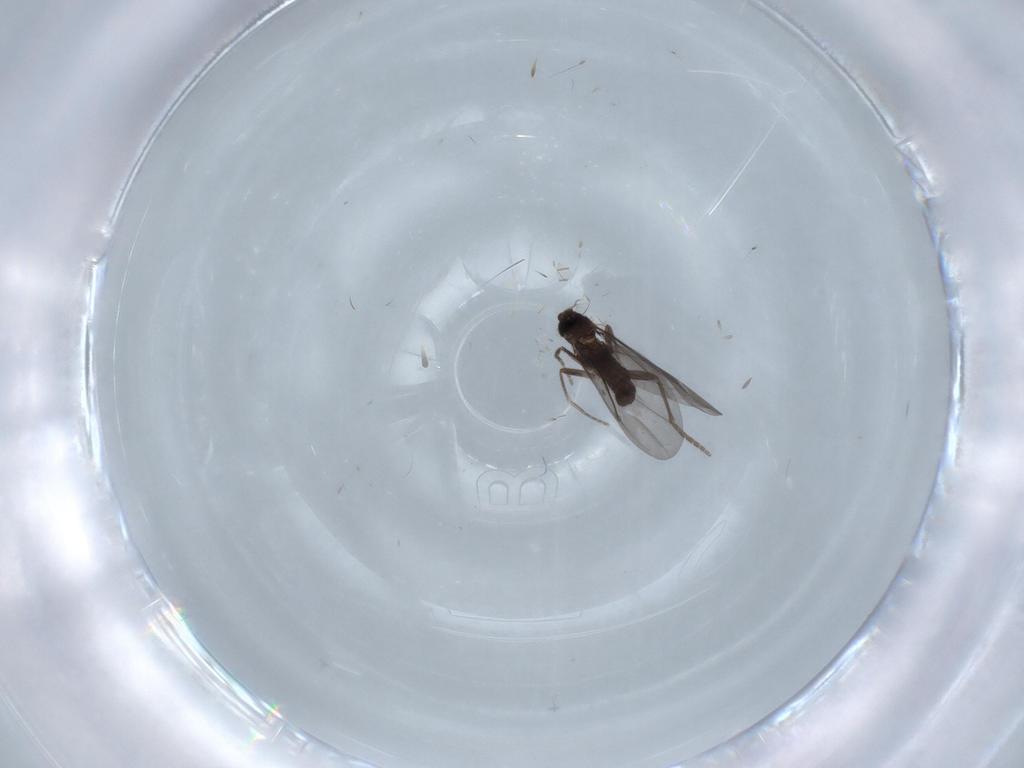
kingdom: Animalia
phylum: Arthropoda
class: Insecta
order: Diptera
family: Phoridae
